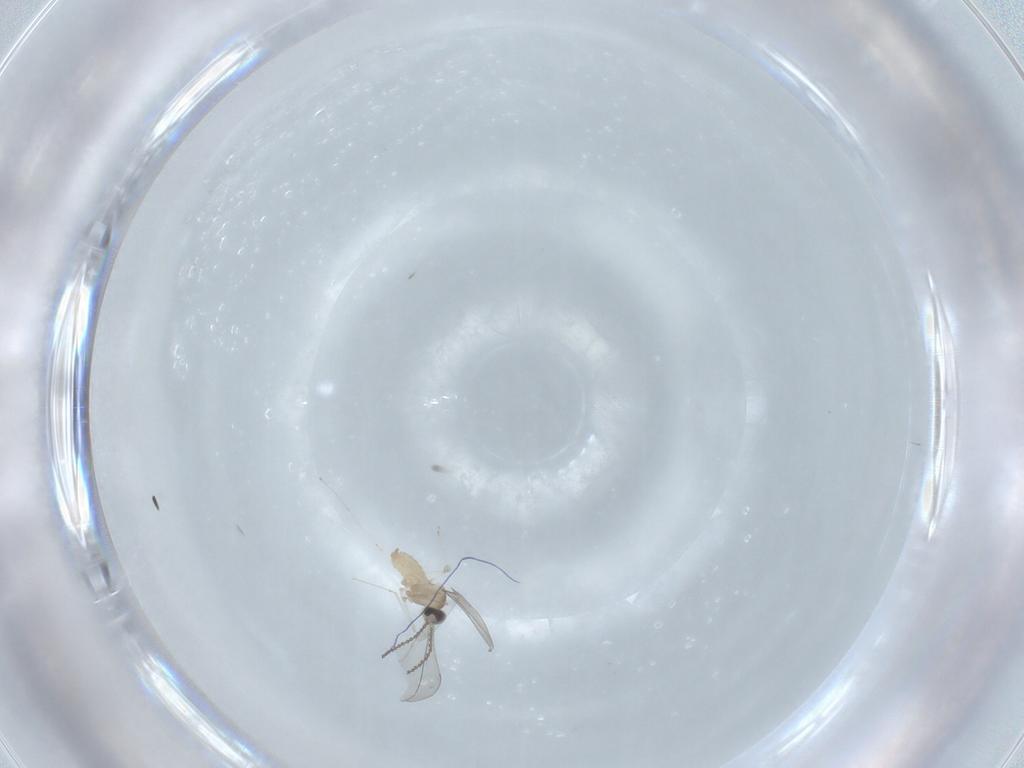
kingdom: Animalia
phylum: Arthropoda
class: Insecta
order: Diptera
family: Cecidomyiidae
